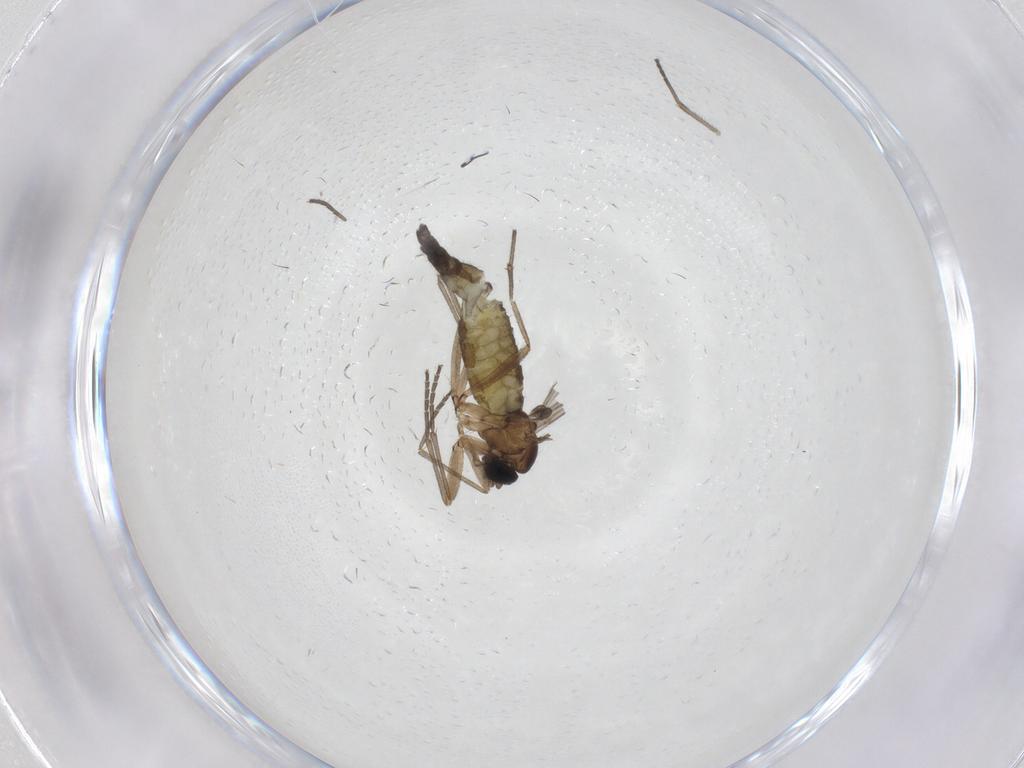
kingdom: Animalia
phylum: Arthropoda
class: Insecta
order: Diptera
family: Sciaridae
